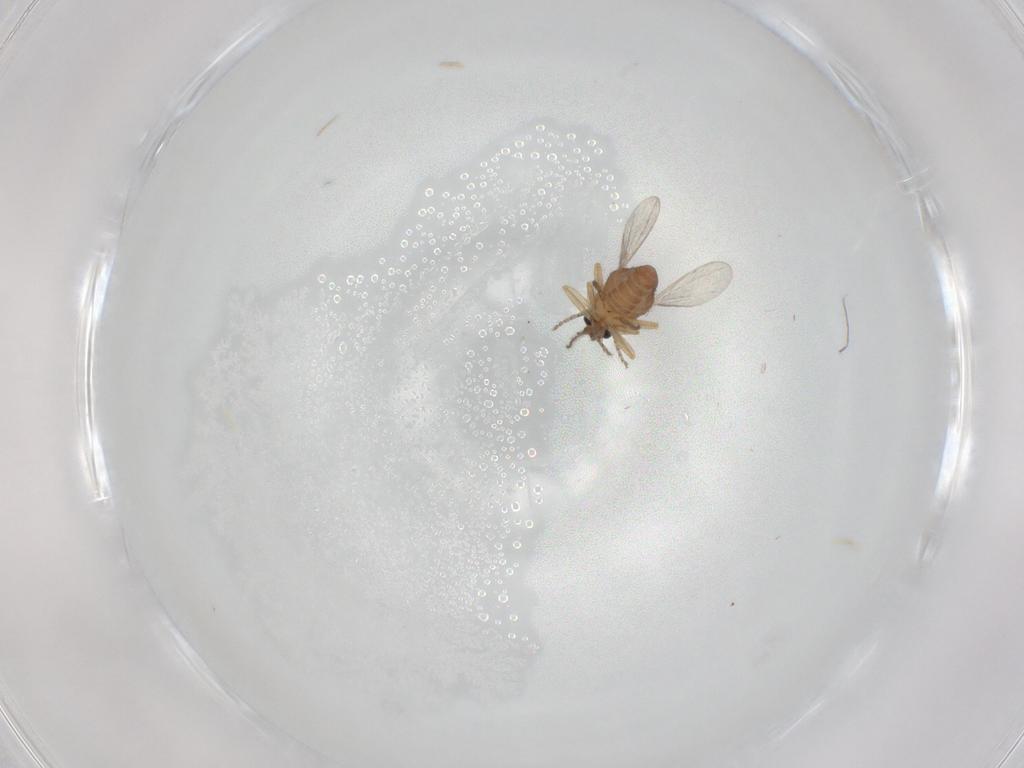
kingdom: Animalia
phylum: Arthropoda
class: Insecta
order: Diptera
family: Ceratopogonidae
